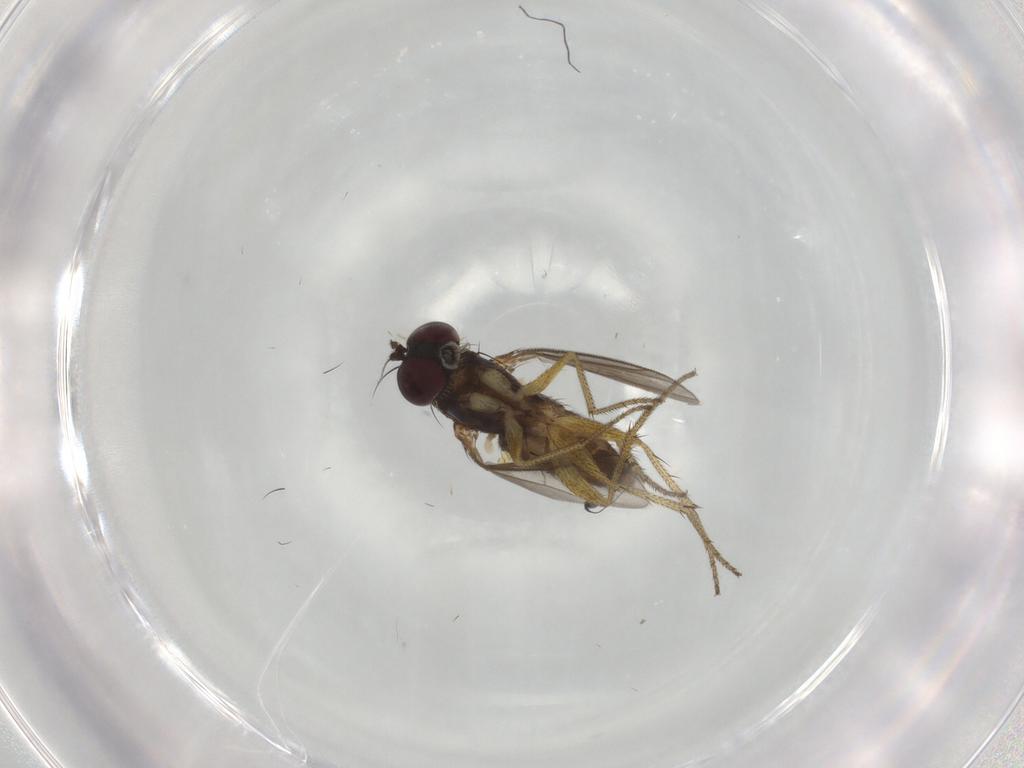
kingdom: Animalia
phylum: Arthropoda
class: Insecta
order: Diptera
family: Dolichopodidae
